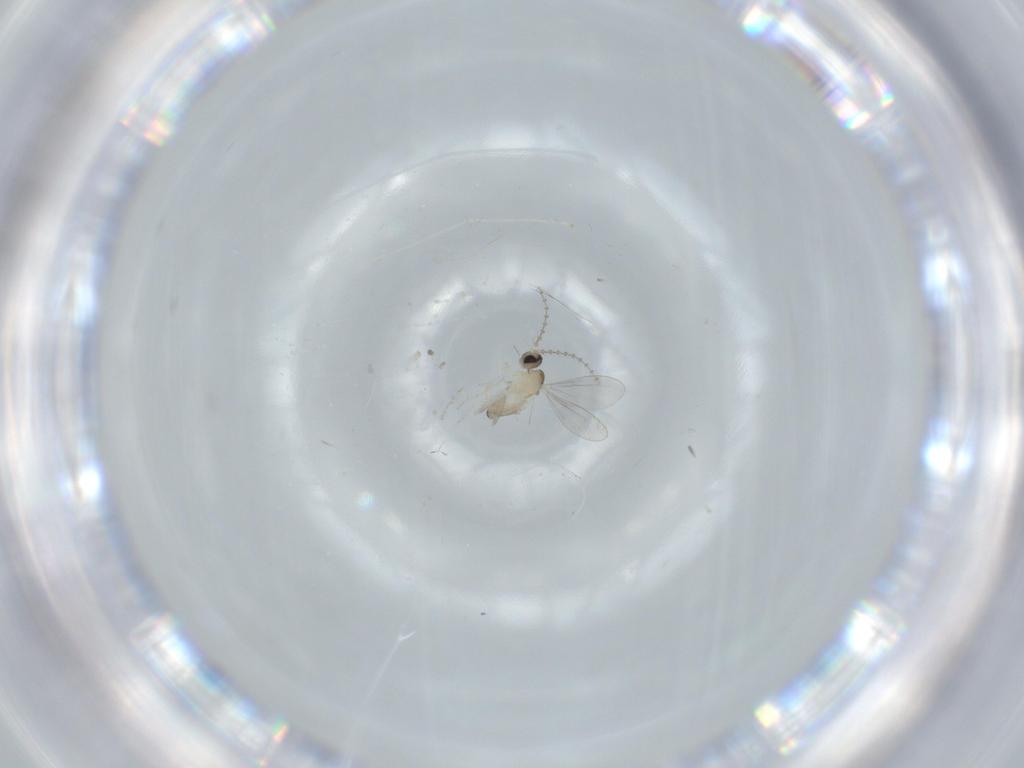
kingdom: Animalia
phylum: Arthropoda
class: Insecta
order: Diptera
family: Cecidomyiidae
